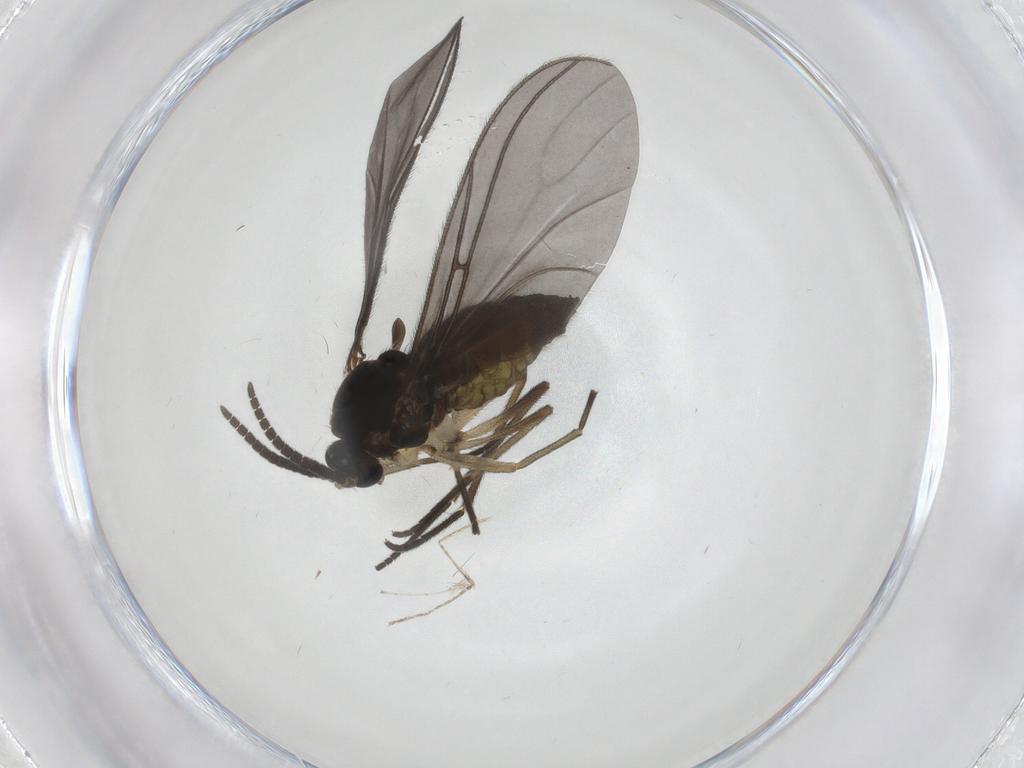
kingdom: Animalia
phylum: Arthropoda
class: Insecta
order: Diptera
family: Sciaridae
